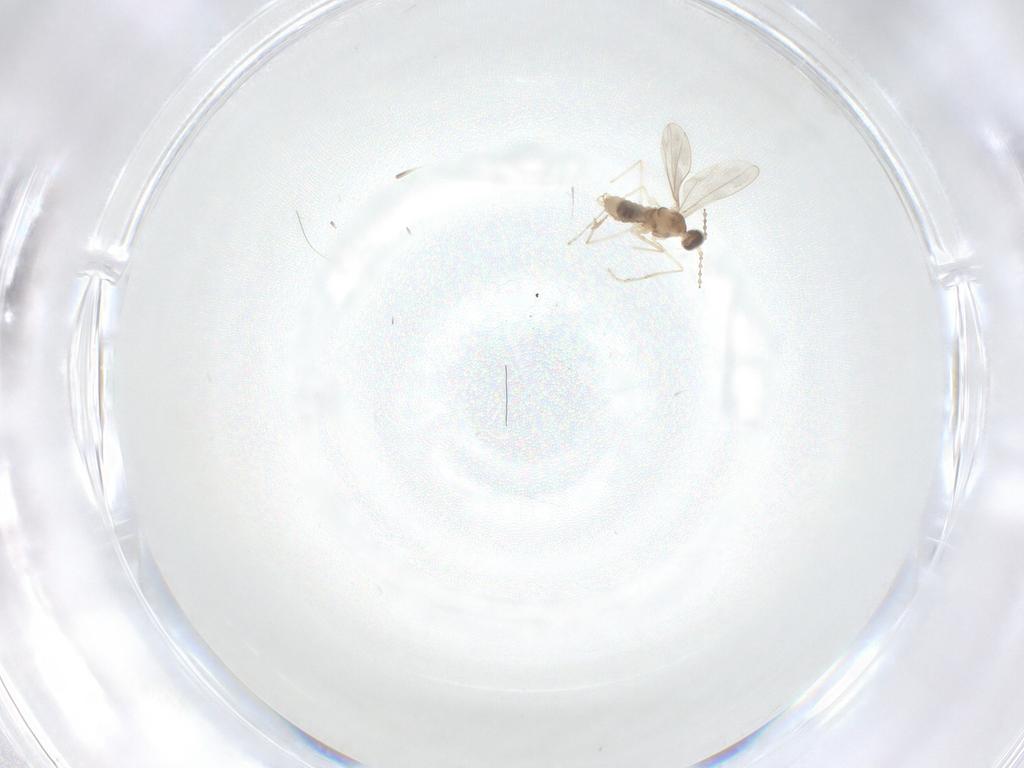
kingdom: Animalia
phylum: Arthropoda
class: Insecta
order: Diptera
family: Cecidomyiidae
